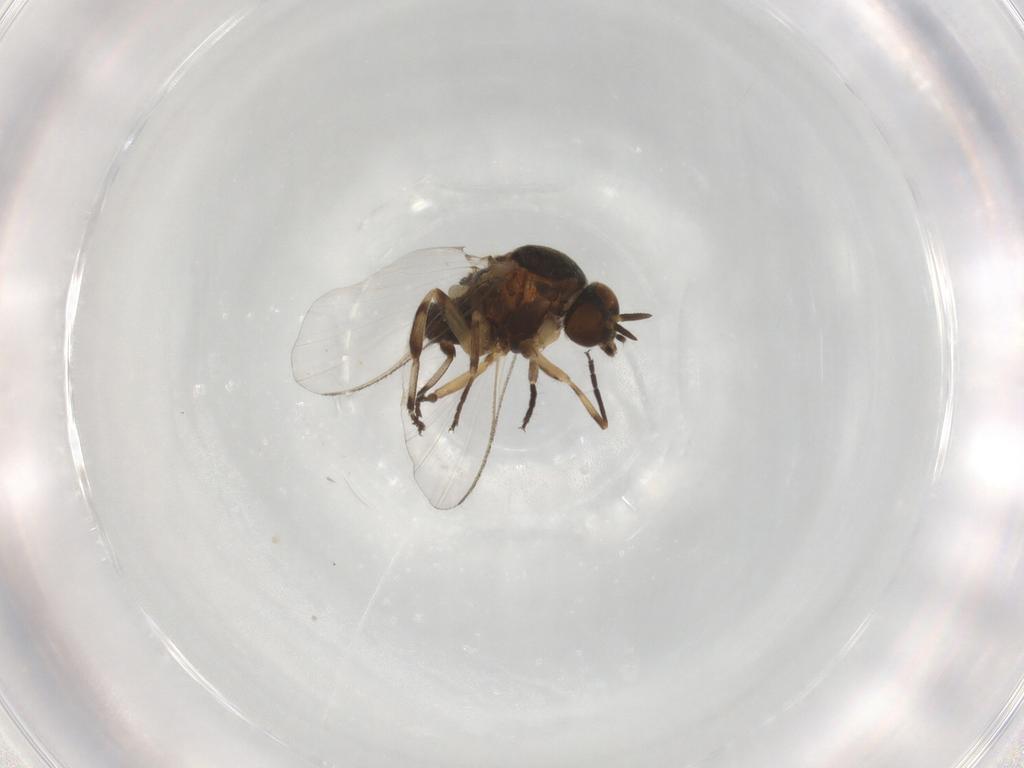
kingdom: Animalia
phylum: Arthropoda
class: Insecta
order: Diptera
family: Simuliidae
